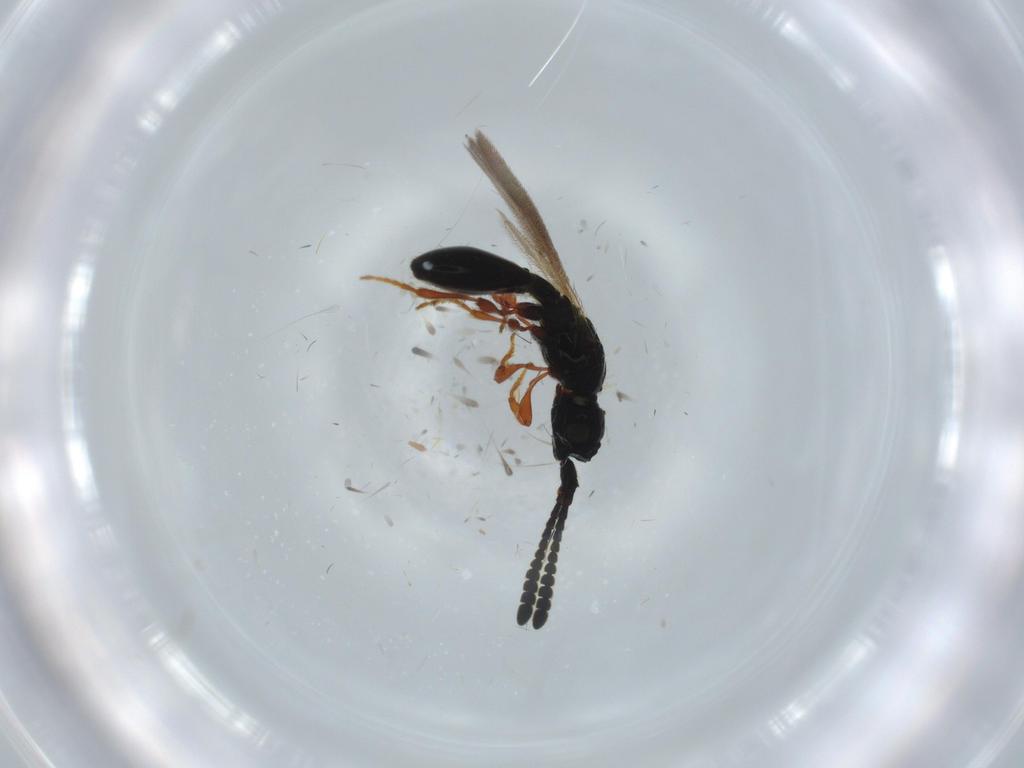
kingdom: Animalia
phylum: Arthropoda
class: Insecta
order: Hymenoptera
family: Diapriidae
